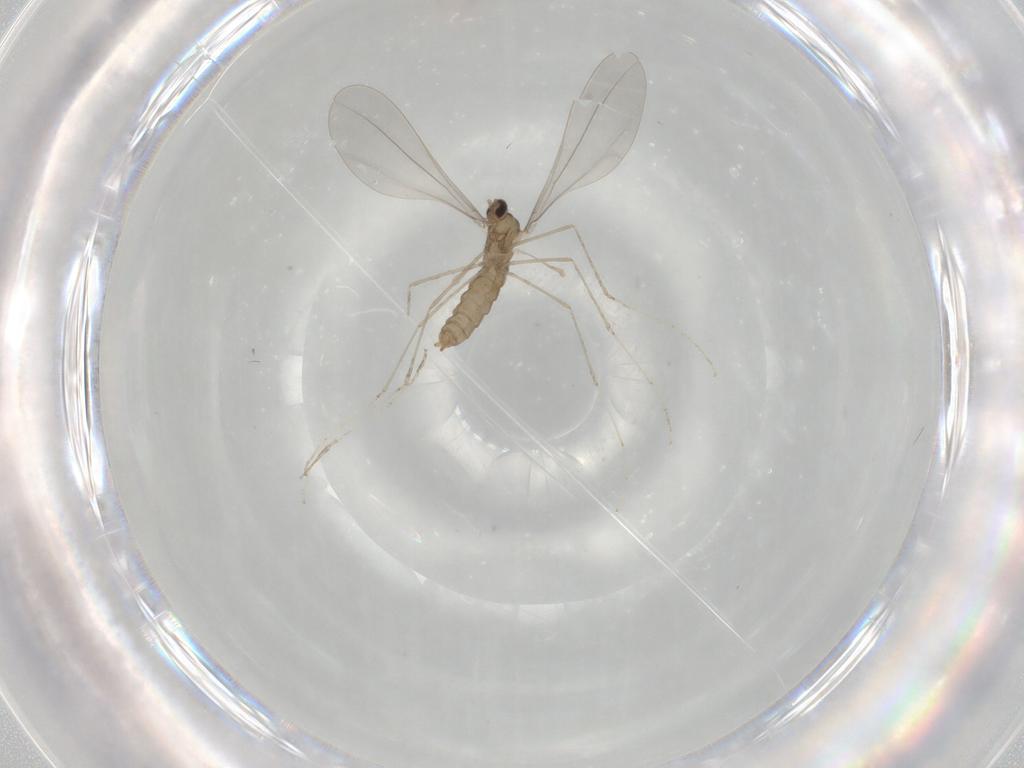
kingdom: Animalia
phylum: Arthropoda
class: Insecta
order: Diptera
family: Cecidomyiidae
